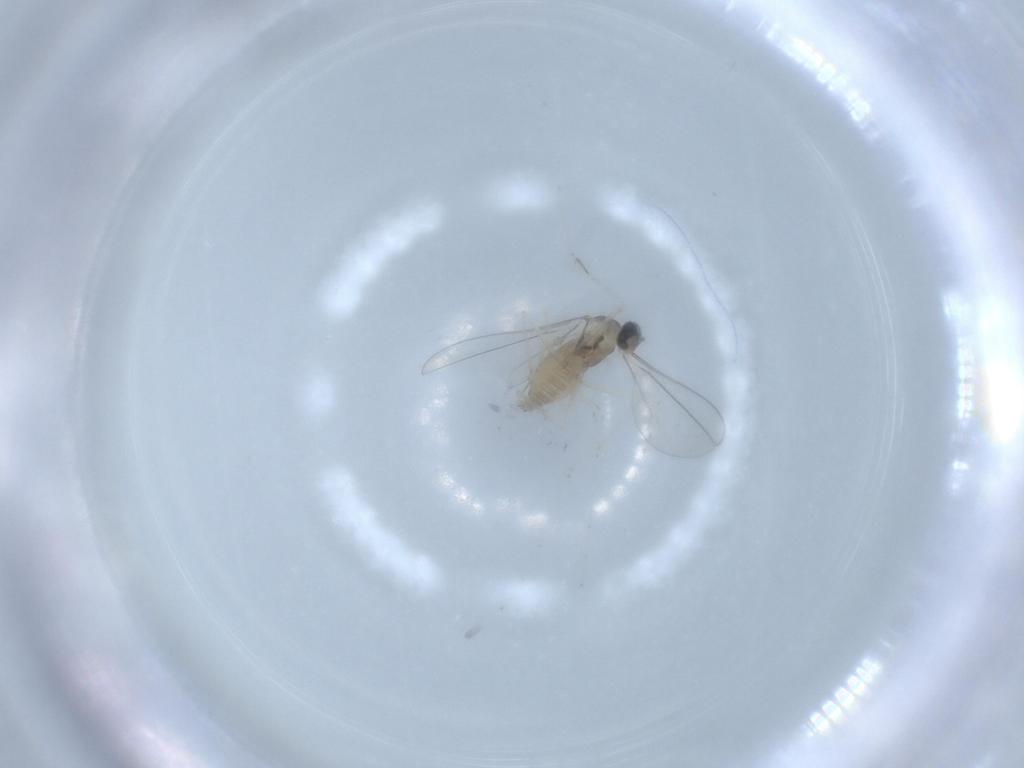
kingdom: Animalia
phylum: Arthropoda
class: Insecta
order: Diptera
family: Cecidomyiidae
